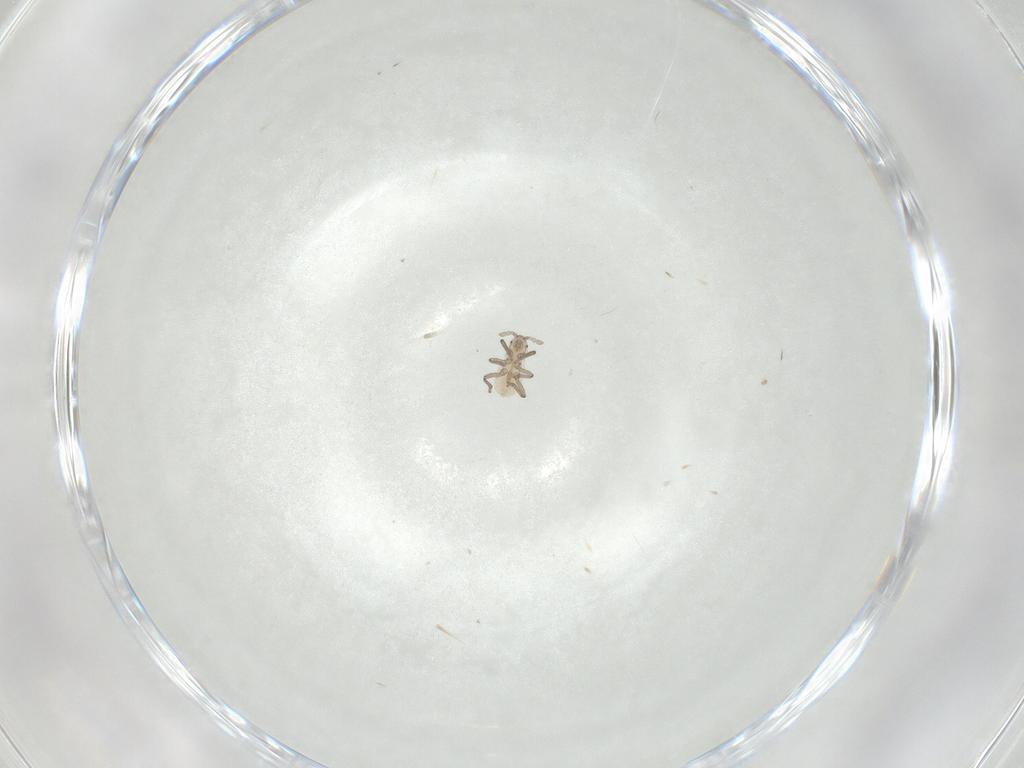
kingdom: Animalia
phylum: Arthropoda
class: Insecta
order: Hemiptera
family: Aphididae
